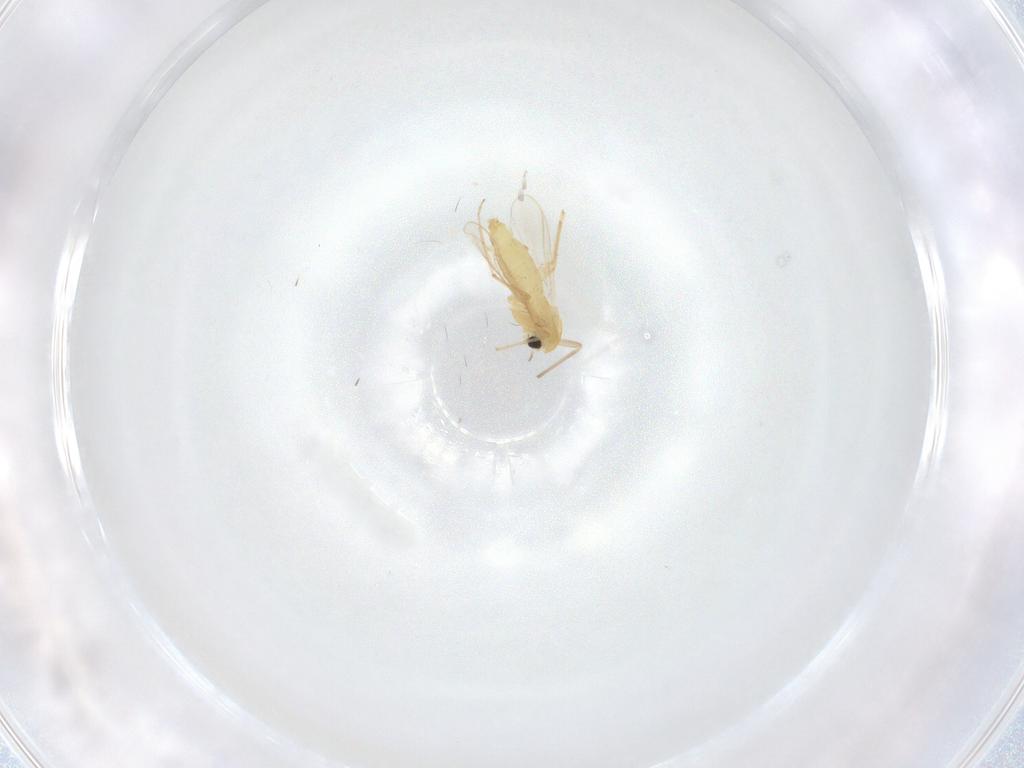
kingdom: Animalia
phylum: Arthropoda
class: Insecta
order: Diptera
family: Chironomidae
